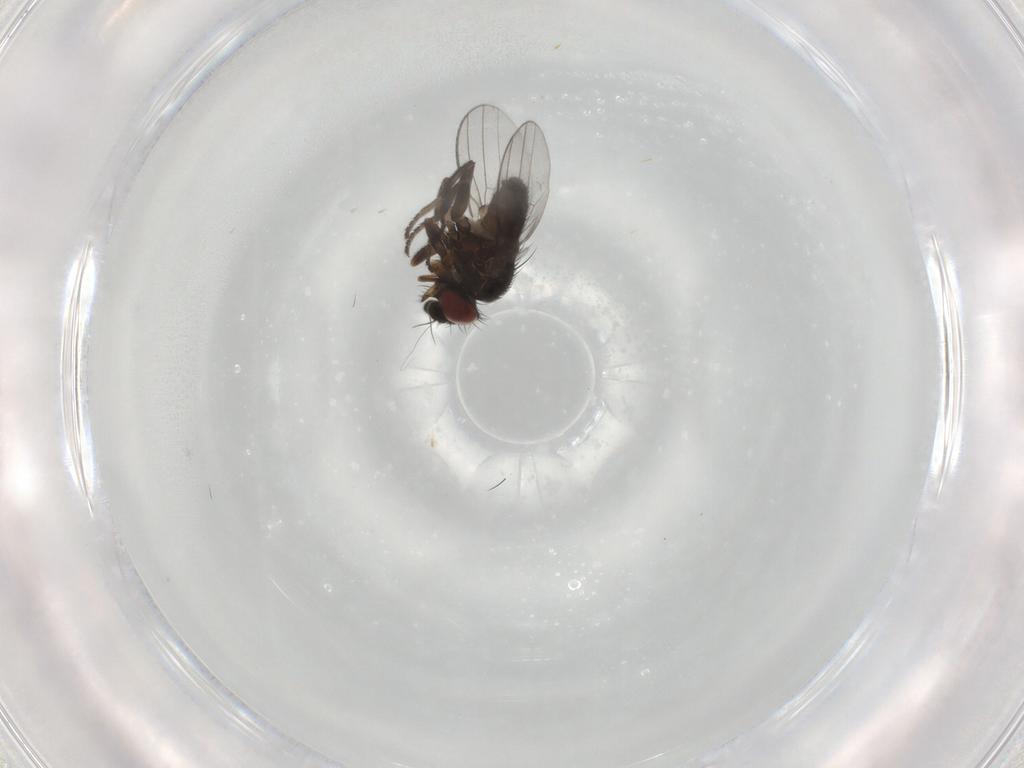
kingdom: Animalia
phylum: Arthropoda
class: Insecta
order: Diptera
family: Milichiidae
